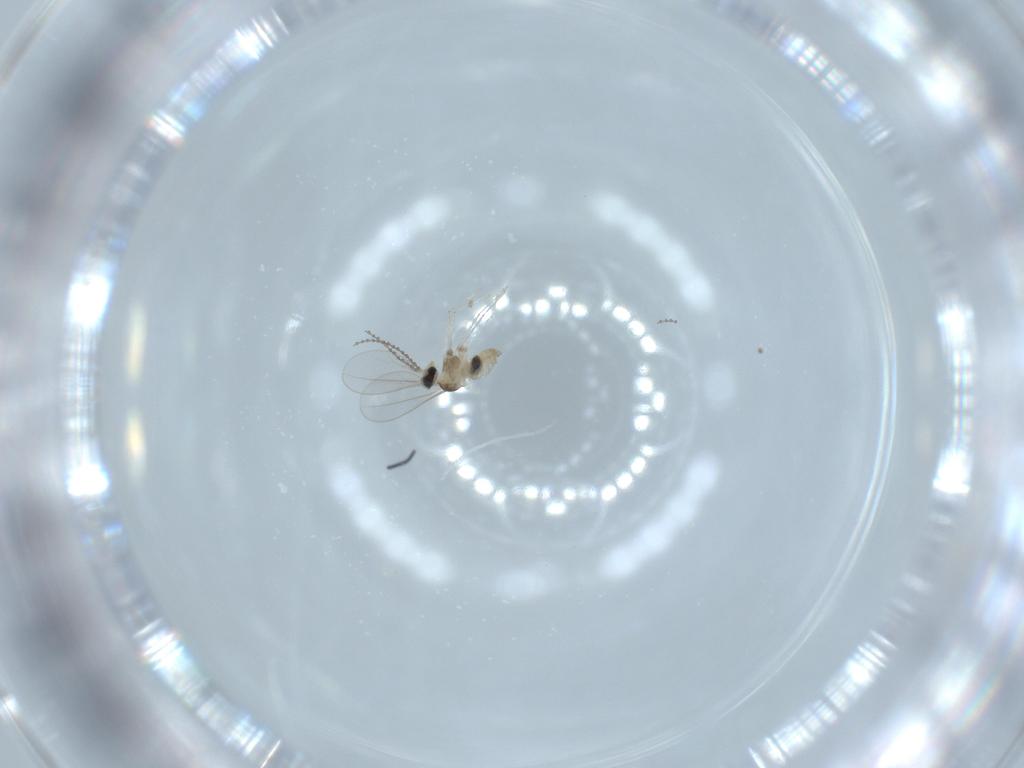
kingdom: Animalia
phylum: Arthropoda
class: Insecta
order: Diptera
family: Cecidomyiidae
